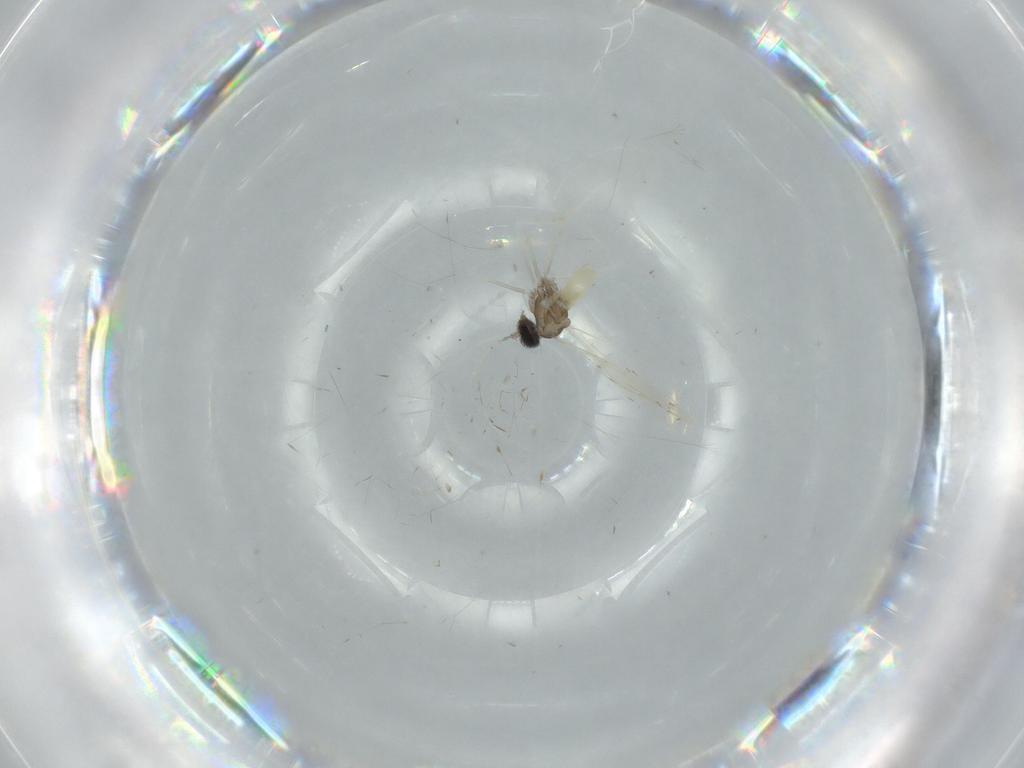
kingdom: Animalia
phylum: Arthropoda
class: Insecta
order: Diptera
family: Cecidomyiidae
